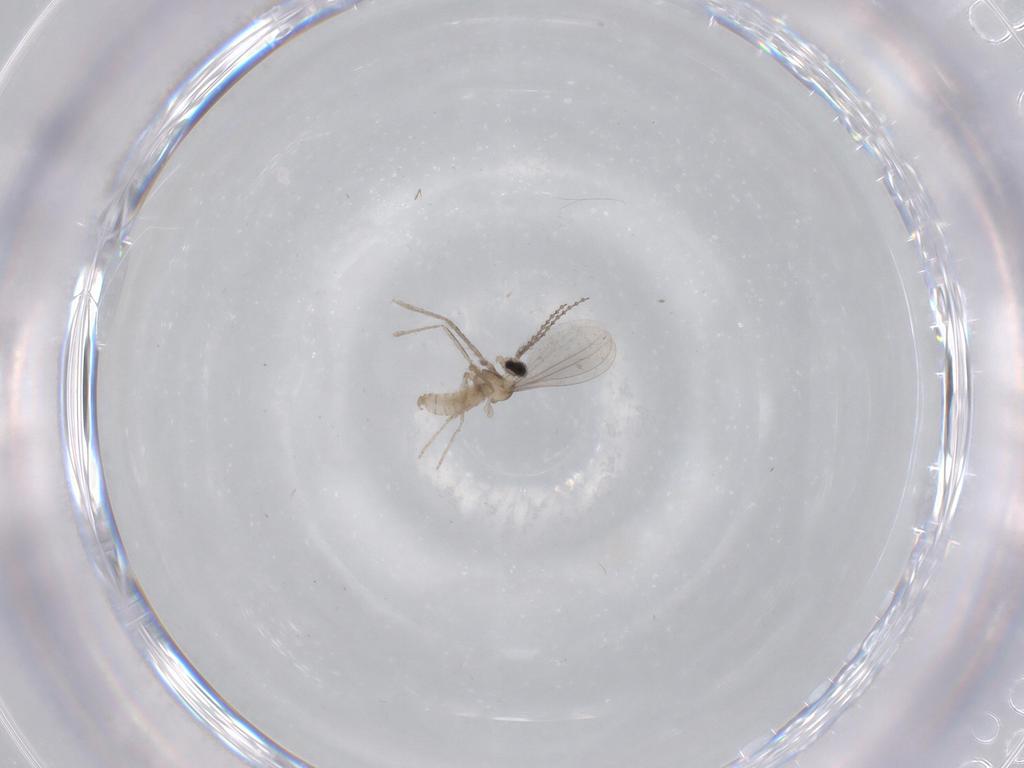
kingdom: Animalia
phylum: Arthropoda
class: Insecta
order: Diptera
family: Cecidomyiidae
